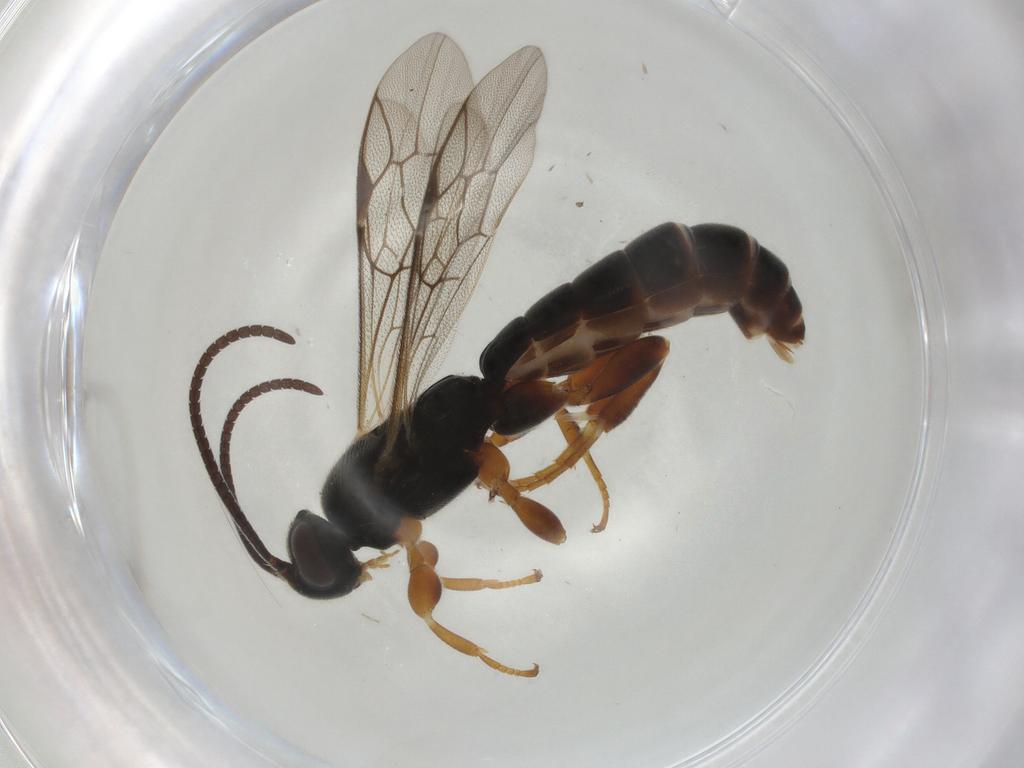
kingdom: Animalia
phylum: Arthropoda
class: Insecta
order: Hymenoptera
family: Ichneumonidae
